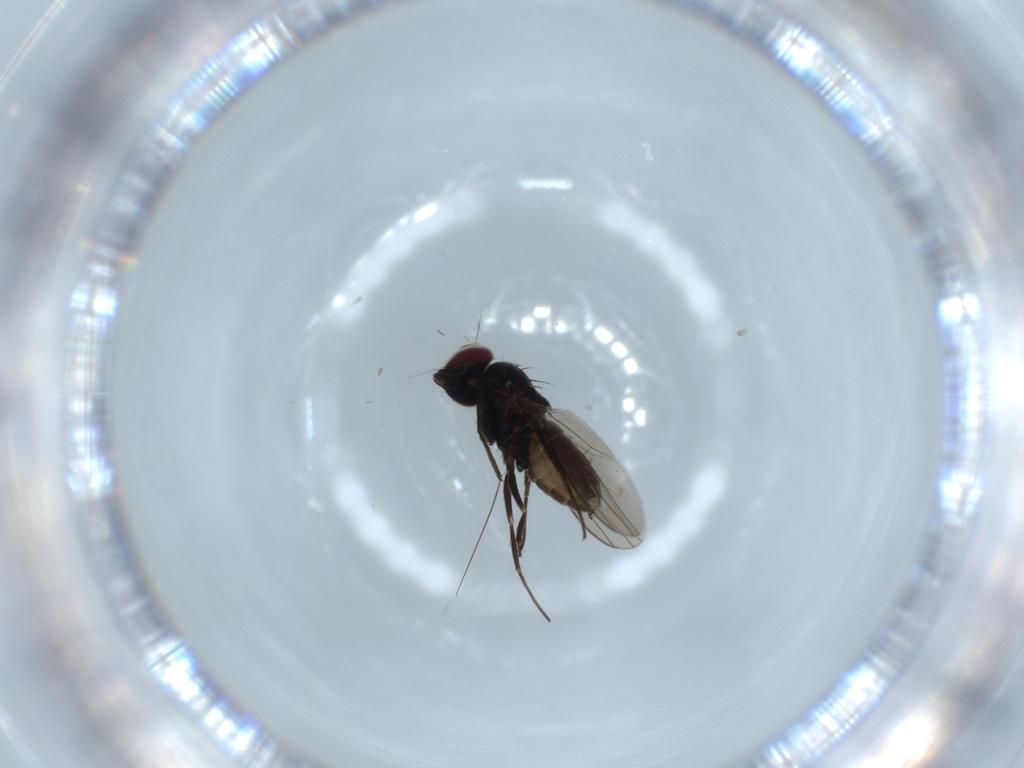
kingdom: Animalia
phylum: Arthropoda
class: Insecta
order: Diptera
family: Dolichopodidae
